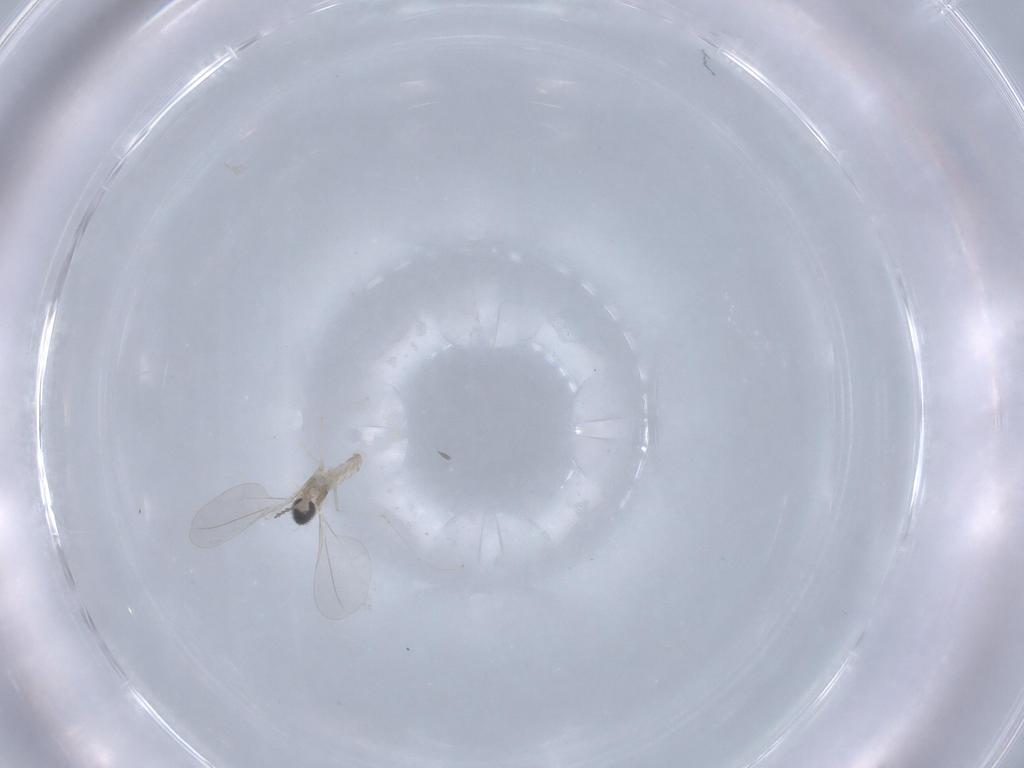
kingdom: Animalia
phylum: Arthropoda
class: Insecta
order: Diptera
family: Cecidomyiidae
